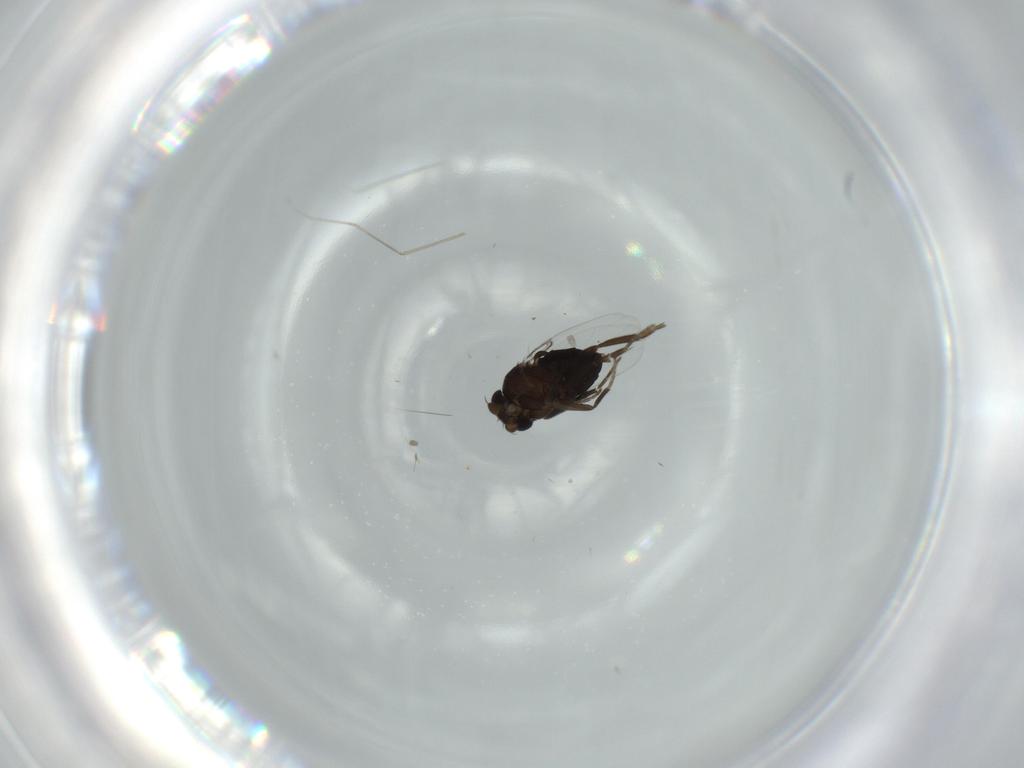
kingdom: Animalia
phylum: Arthropoda
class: Insecta
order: Diptera
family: Phoridae
